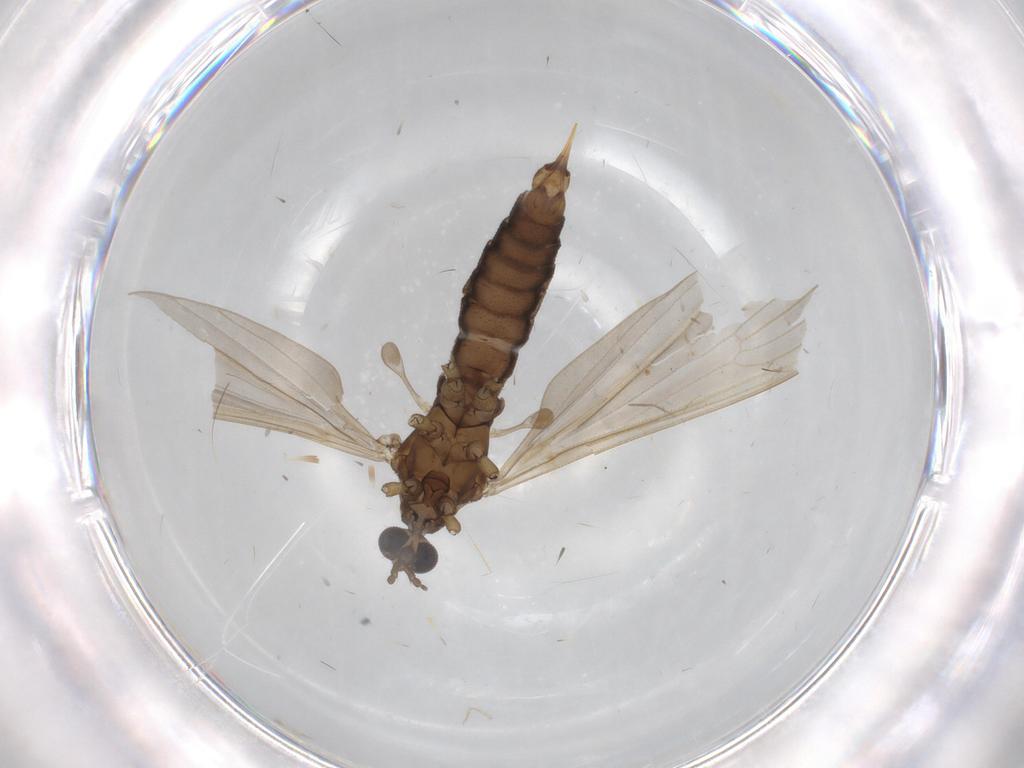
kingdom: Animalia
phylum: Arthropoda
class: Insecta
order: Diptera
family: Limoniidae
